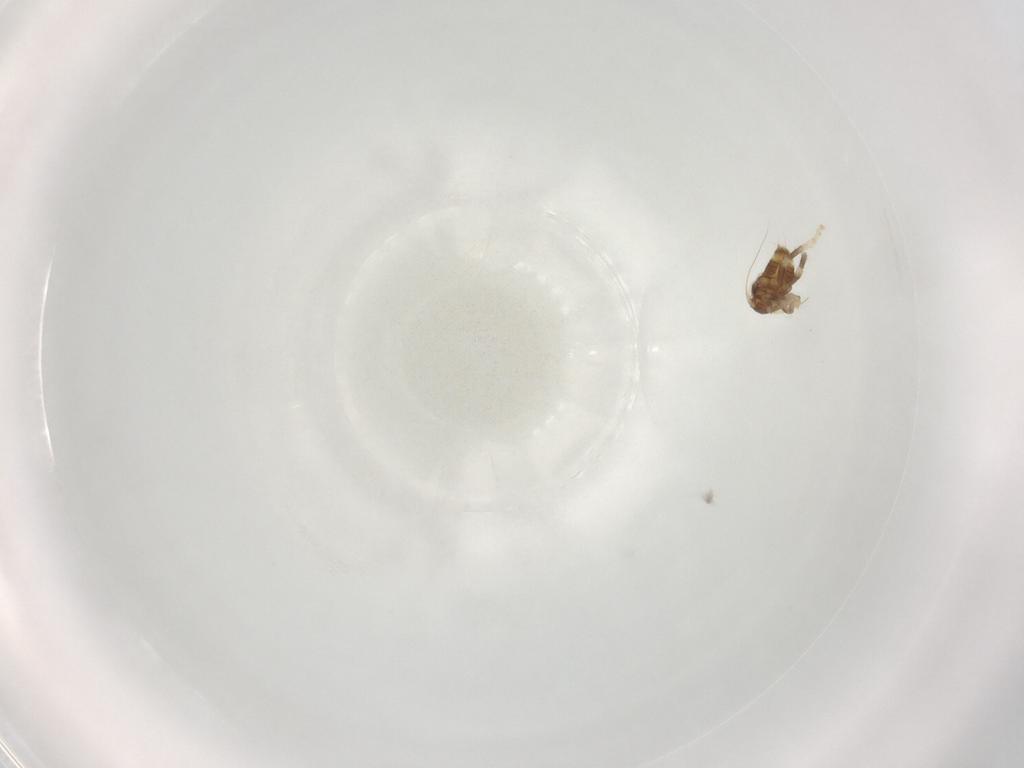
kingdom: Animalia
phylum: Arthropoda
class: Insecta
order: Hemiptera
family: Cicadellidae
